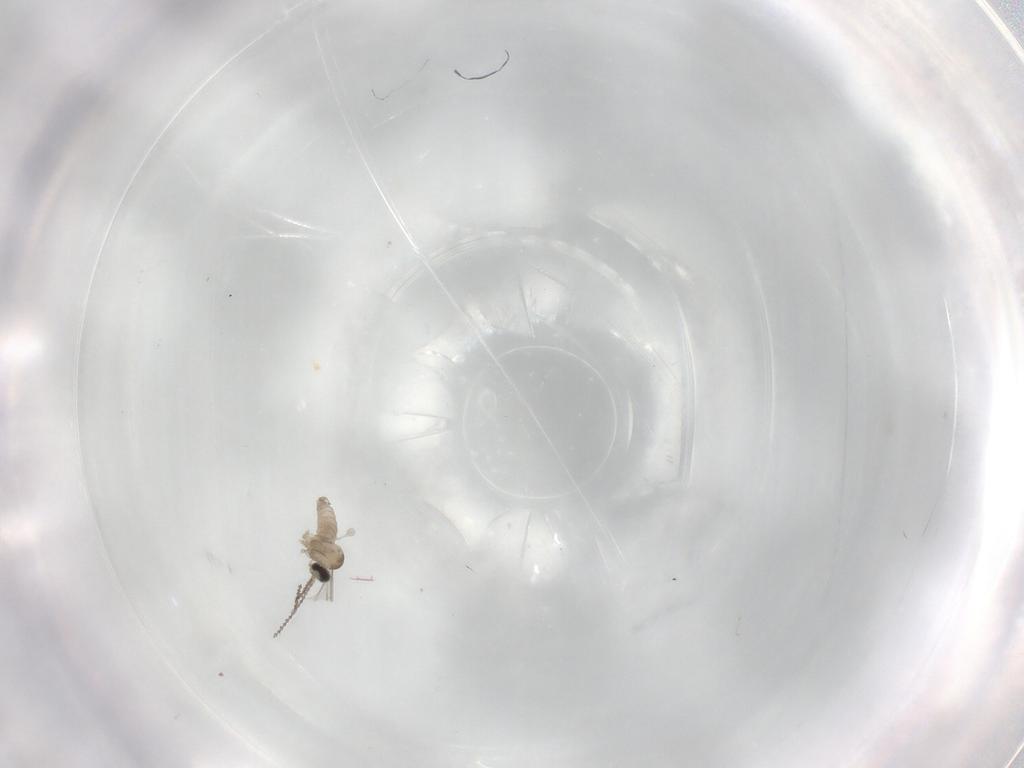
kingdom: Animalia
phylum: Arthropoda
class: Insecta
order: Diptera
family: Cecidomyiidae
